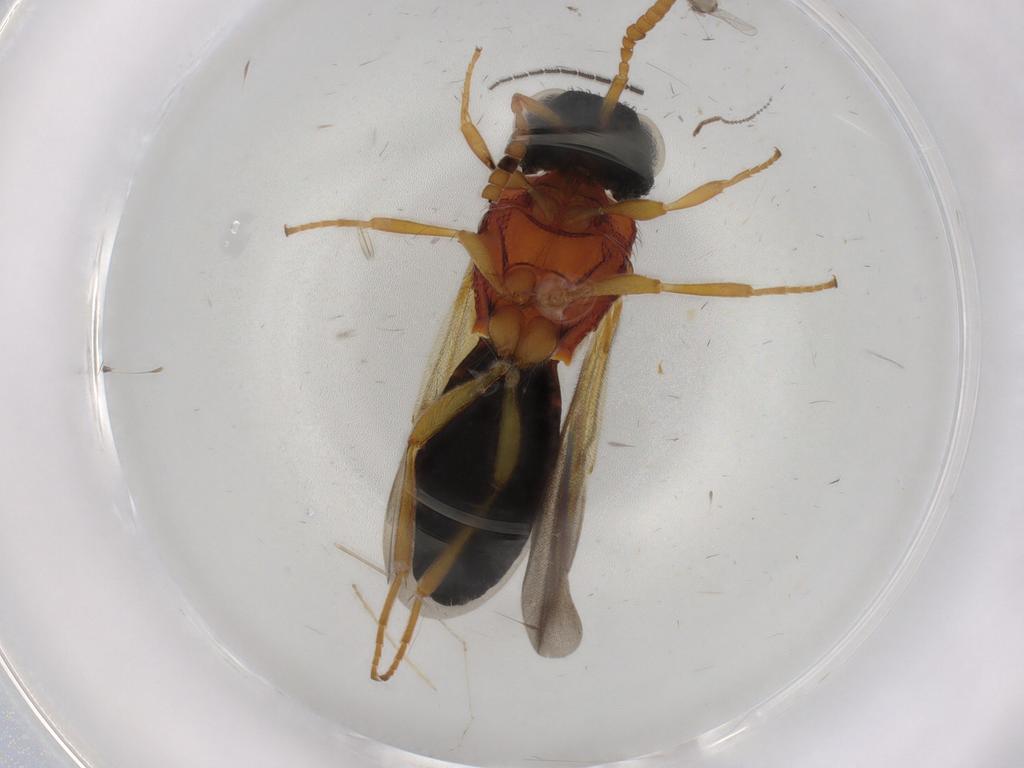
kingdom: Animalia
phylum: Arthropoda
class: Insecta
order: Hymenoptera
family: Scelionidae
